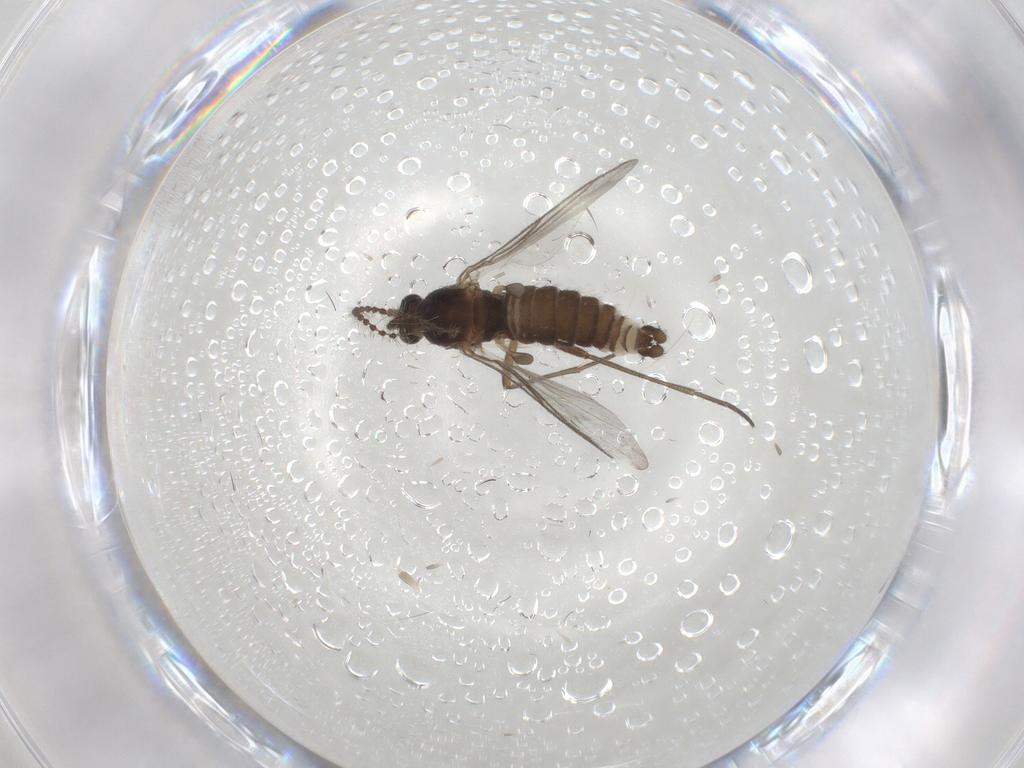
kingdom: Animalia
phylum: Arthropoda
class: Insecta
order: Diptera
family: Sciaridae
